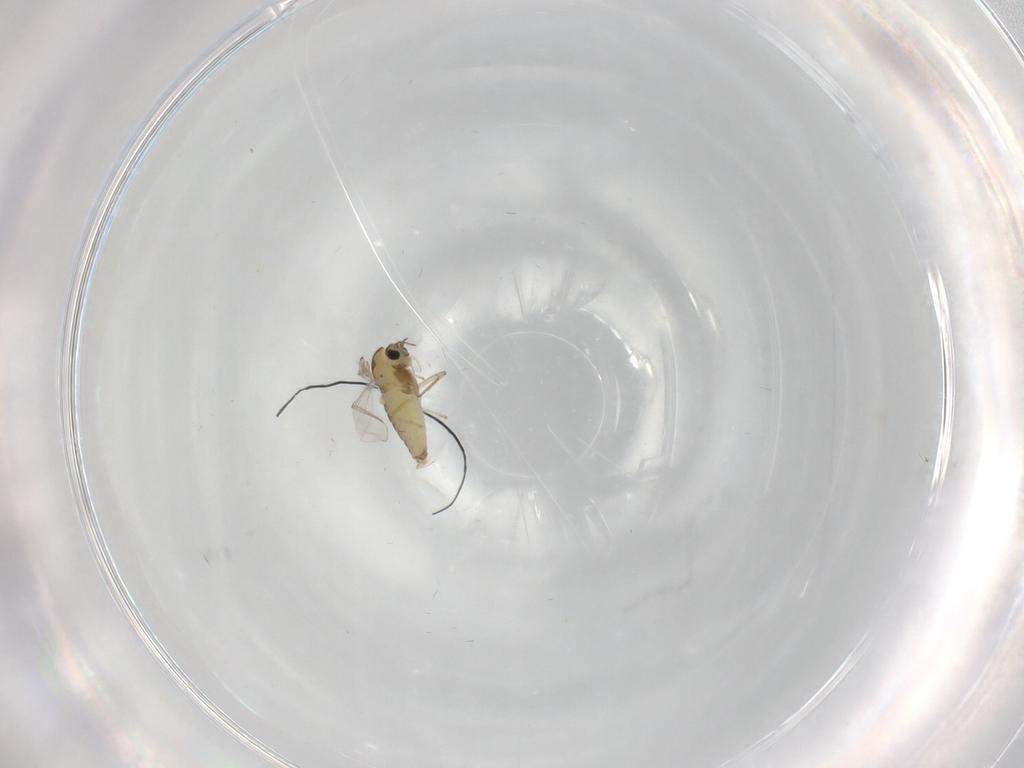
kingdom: Animalia
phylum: Arthropoda
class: Insecta
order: Diptera
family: Chironomidae
